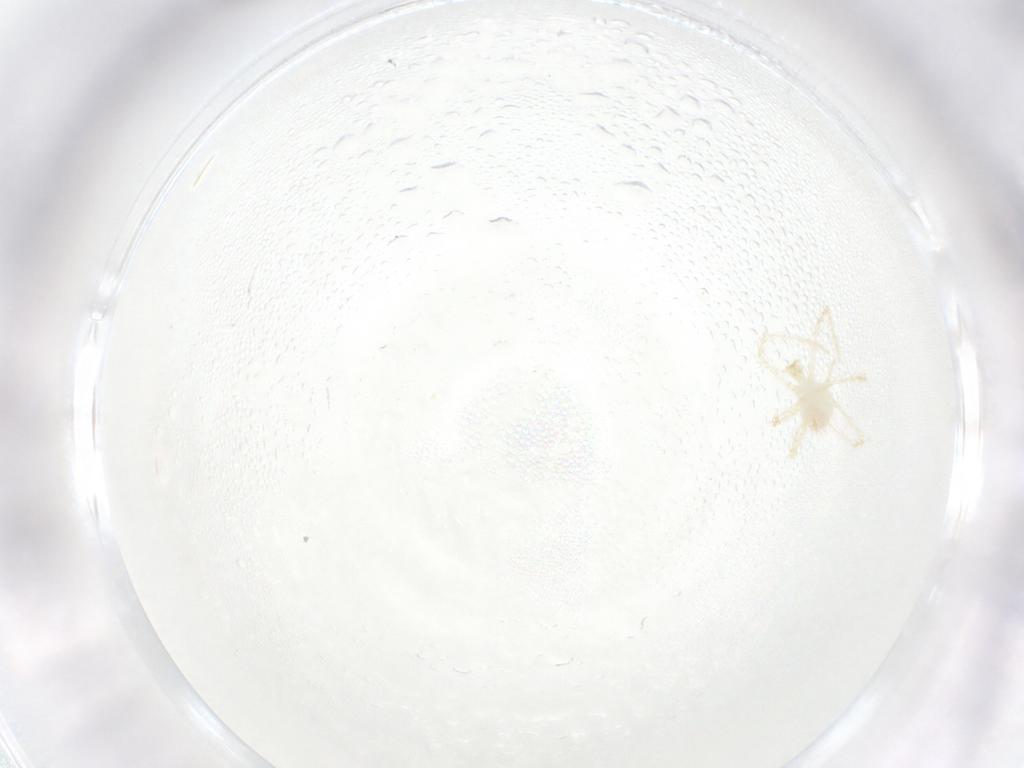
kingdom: Animalia
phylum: Arthropoda
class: Arachnida
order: Trombidiformes
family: Erythraeidae
